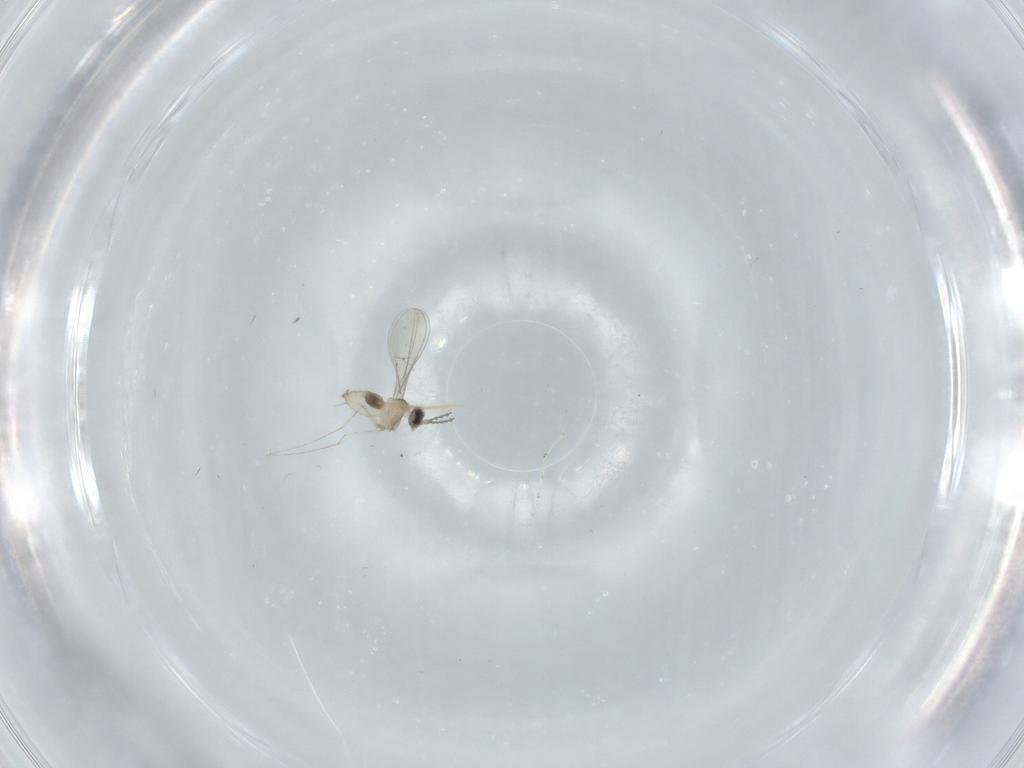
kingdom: Animalia
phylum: Arthropoda
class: Insecta
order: Diptera
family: Cecidomyiidae
